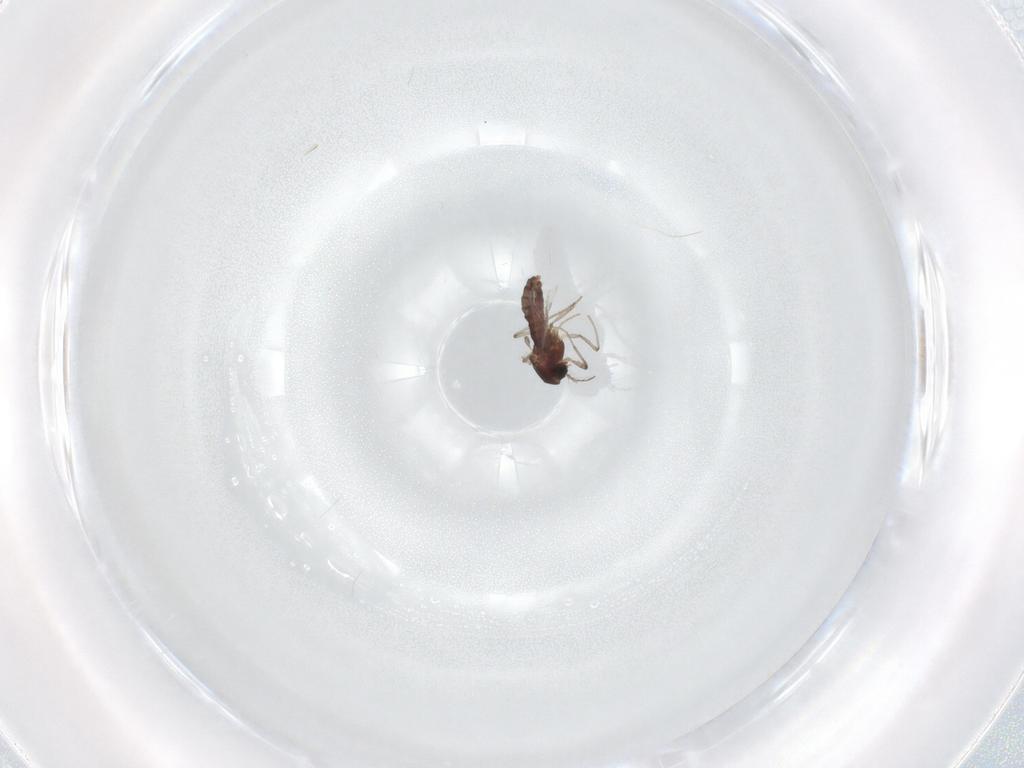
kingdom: Animalia
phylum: Arthropoda
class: Insecta
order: Diptera
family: Chironomidae
